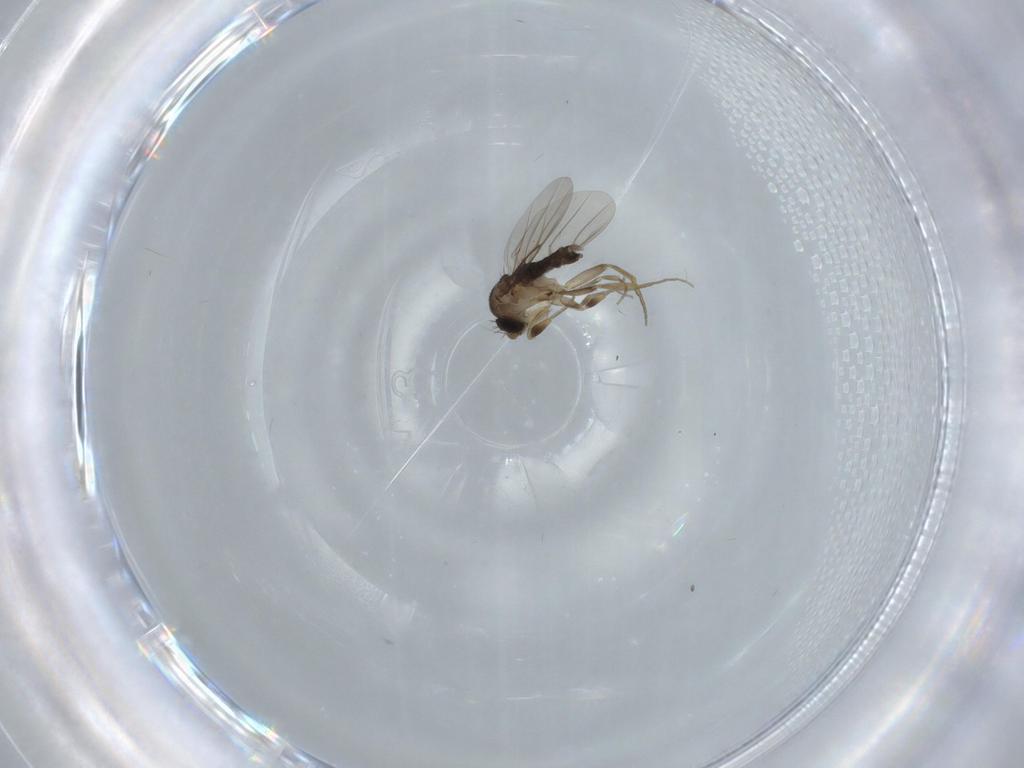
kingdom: Animalia
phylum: Arthropoda
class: Insecta
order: Diptera
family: Phoridae
